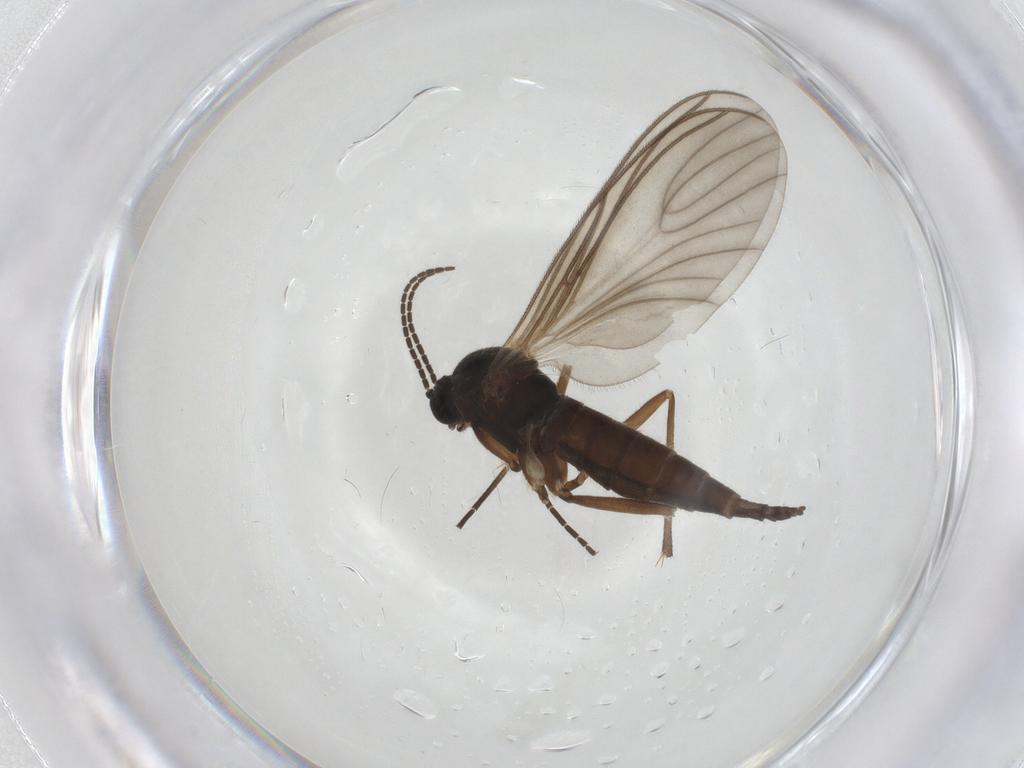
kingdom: Animalia
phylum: Arthropoda
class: Insecta
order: Diptera
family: Sciaridae
